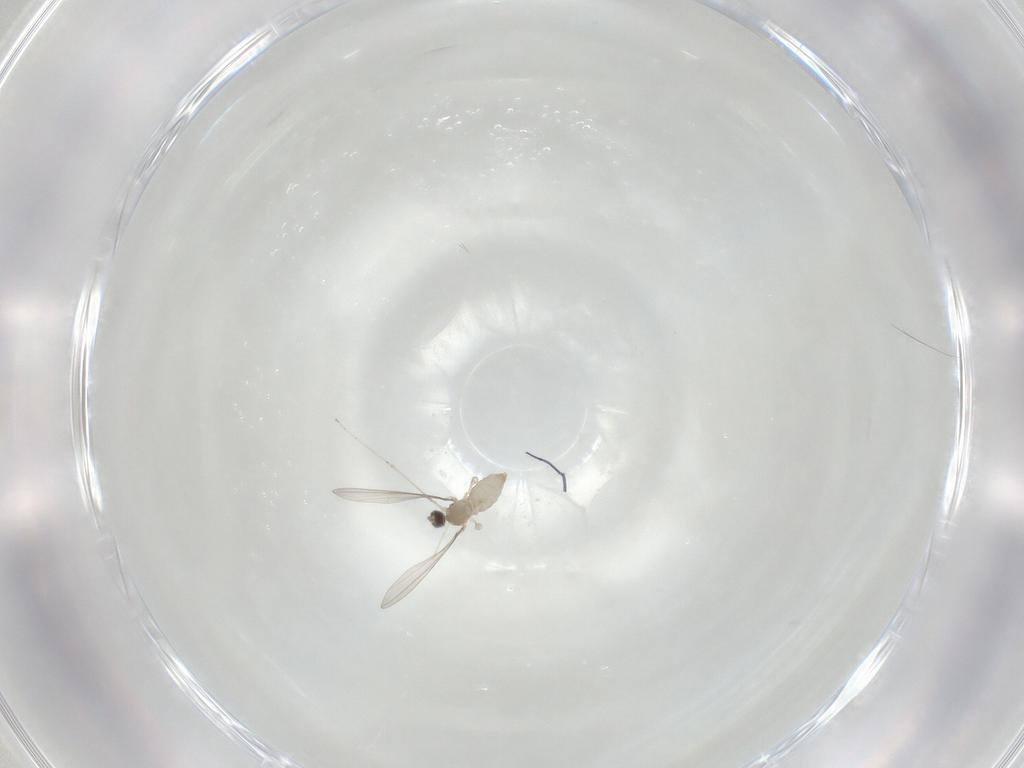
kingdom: Animalia
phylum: Arthropoda
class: Insecta
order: Diptera
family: Cecidomyiidae
